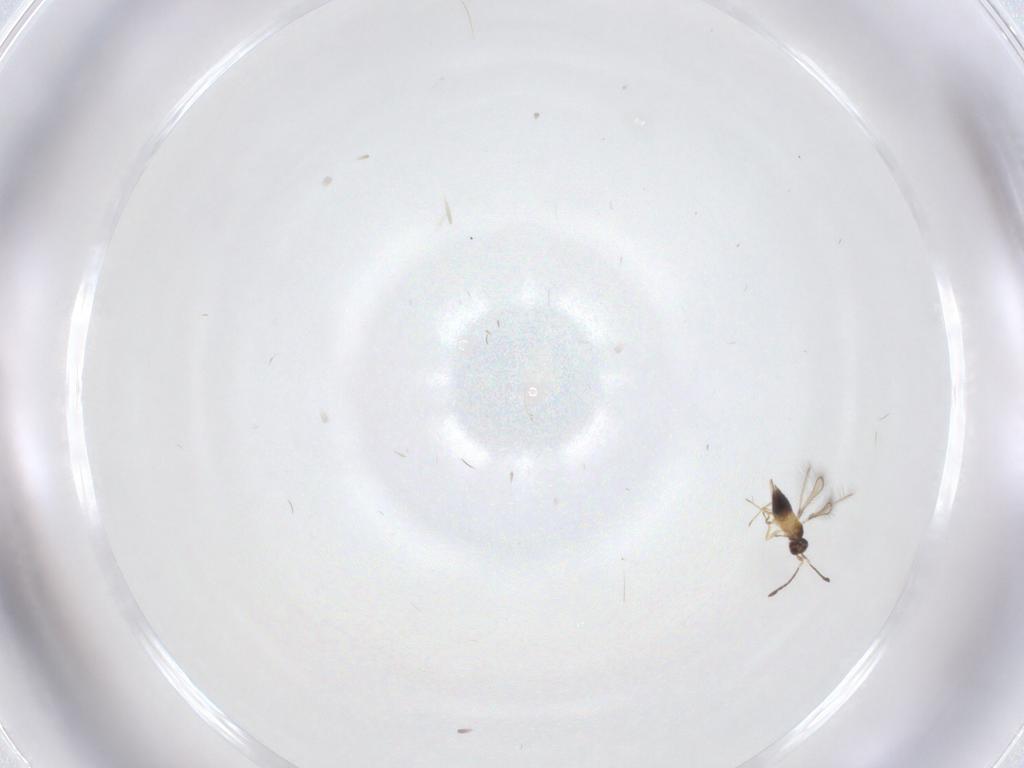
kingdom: Animalia
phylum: Arthropoda
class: Insecta
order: Hymenoptera
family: Mymaridae
